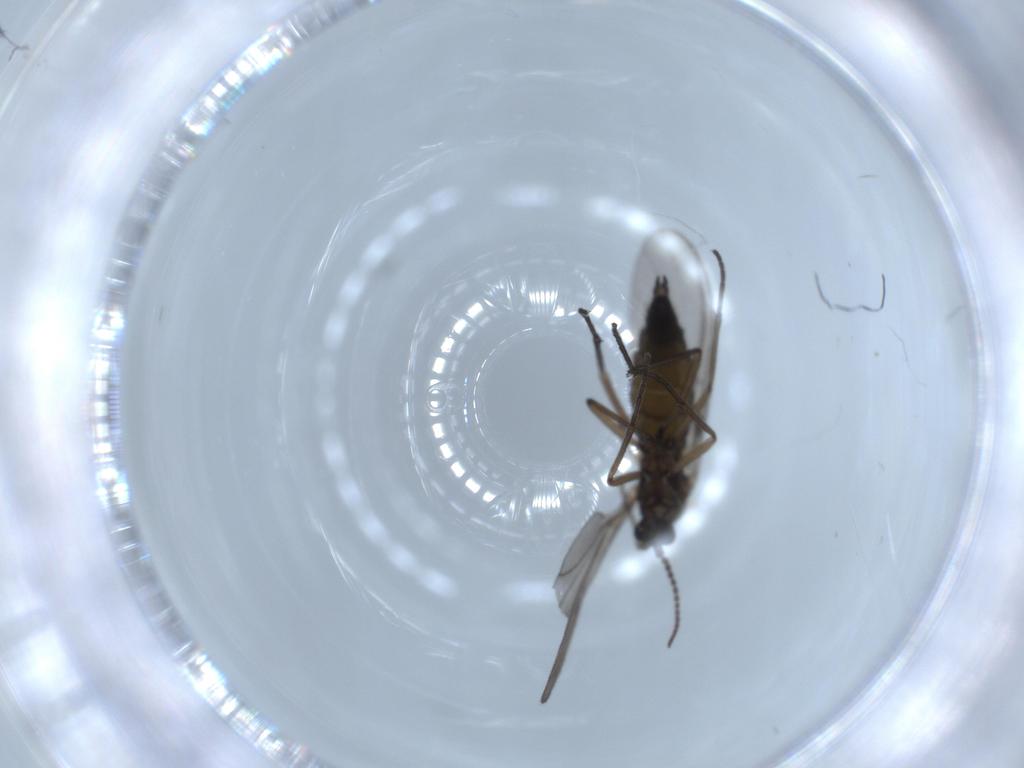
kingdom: Animalia
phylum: Arthropoda
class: Insecta
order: Diptera
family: Sciaridae
